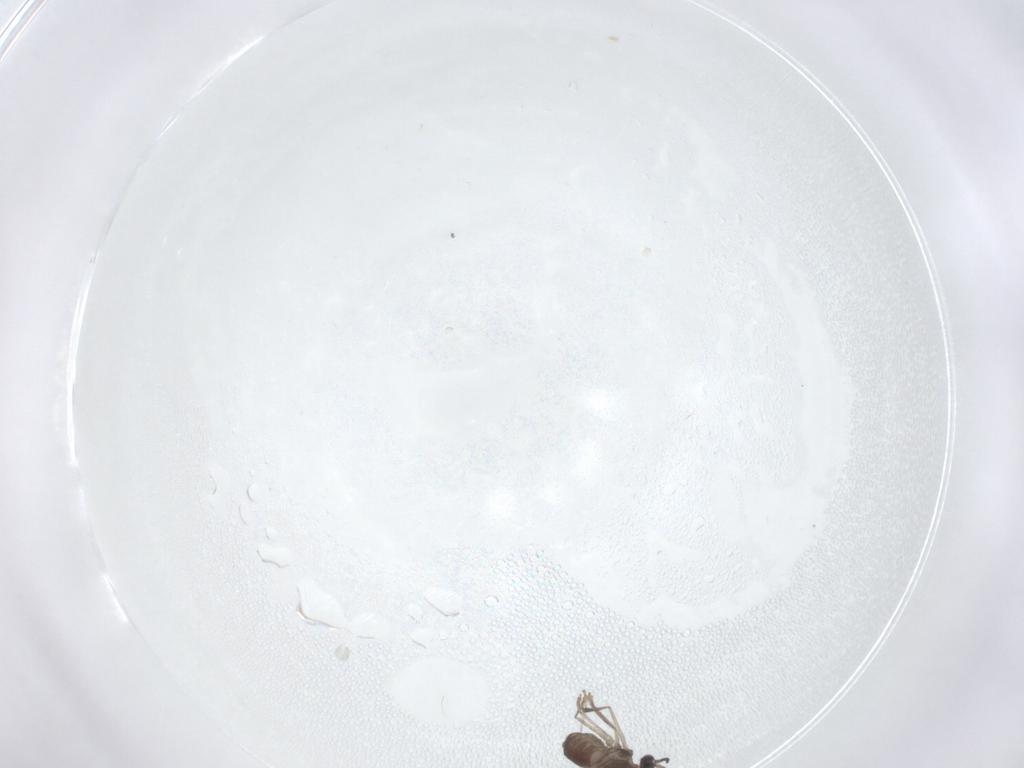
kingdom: Animalia
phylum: Arthropoda
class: Insecta
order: Diptera
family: Cecidomyiidae
